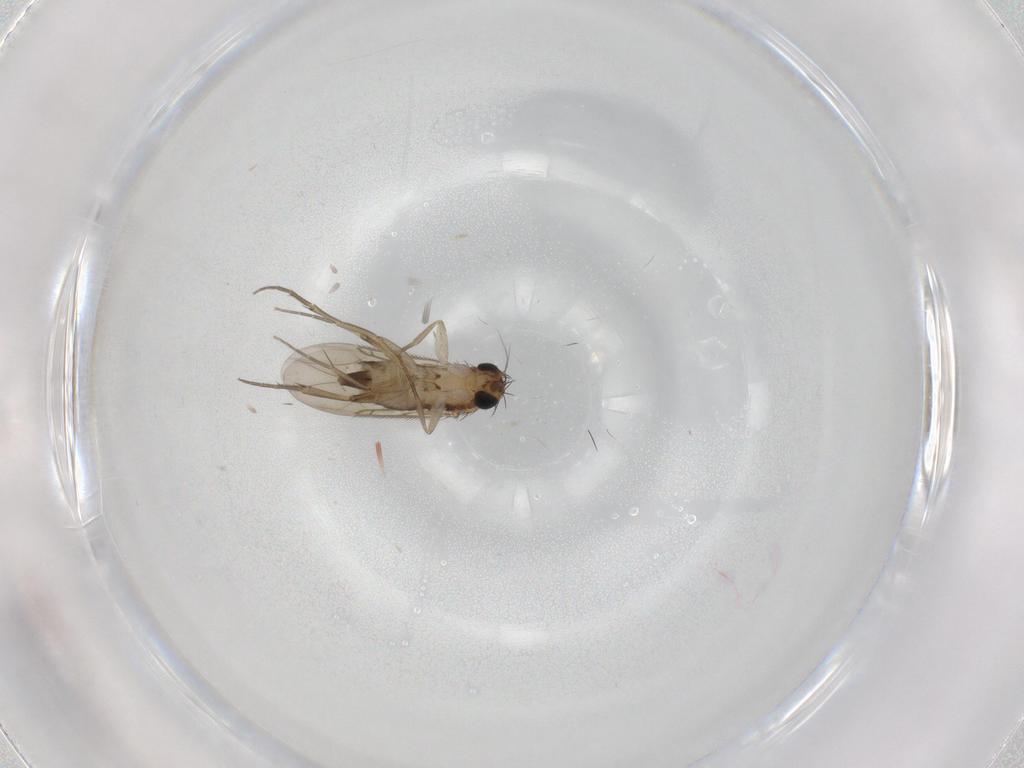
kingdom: Animalia
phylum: Arthropoda
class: Insecta
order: Diptera
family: Phoridae
